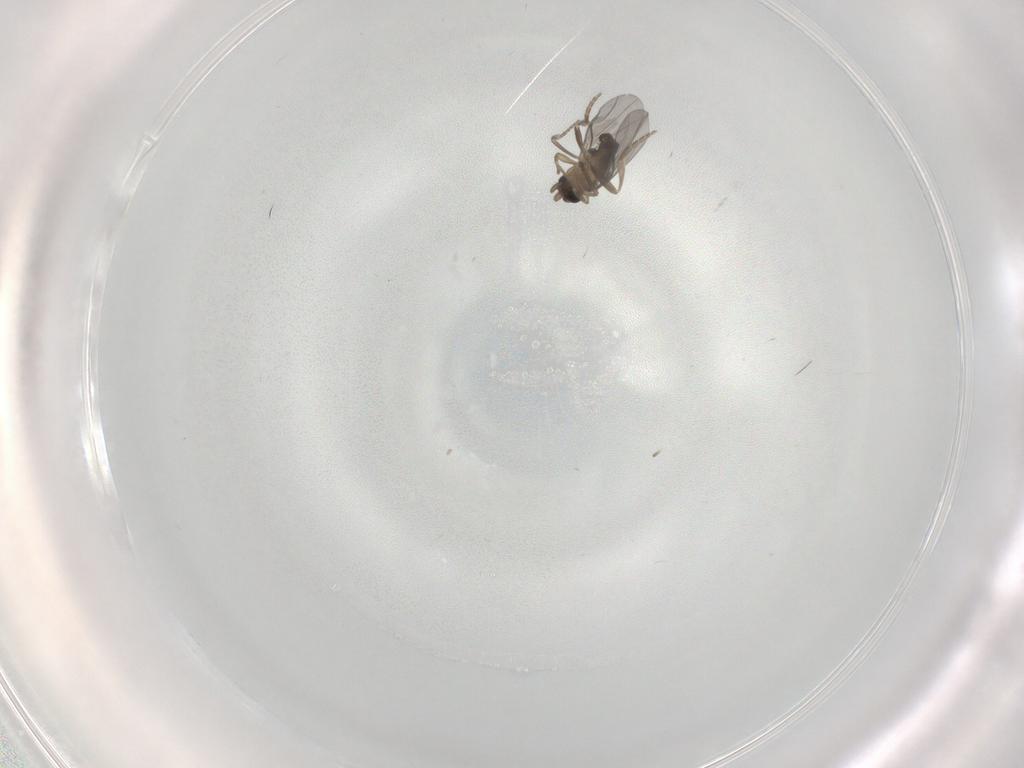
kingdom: Animalia
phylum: Arthropoda
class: Insecta
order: Diptera
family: Phoridae
